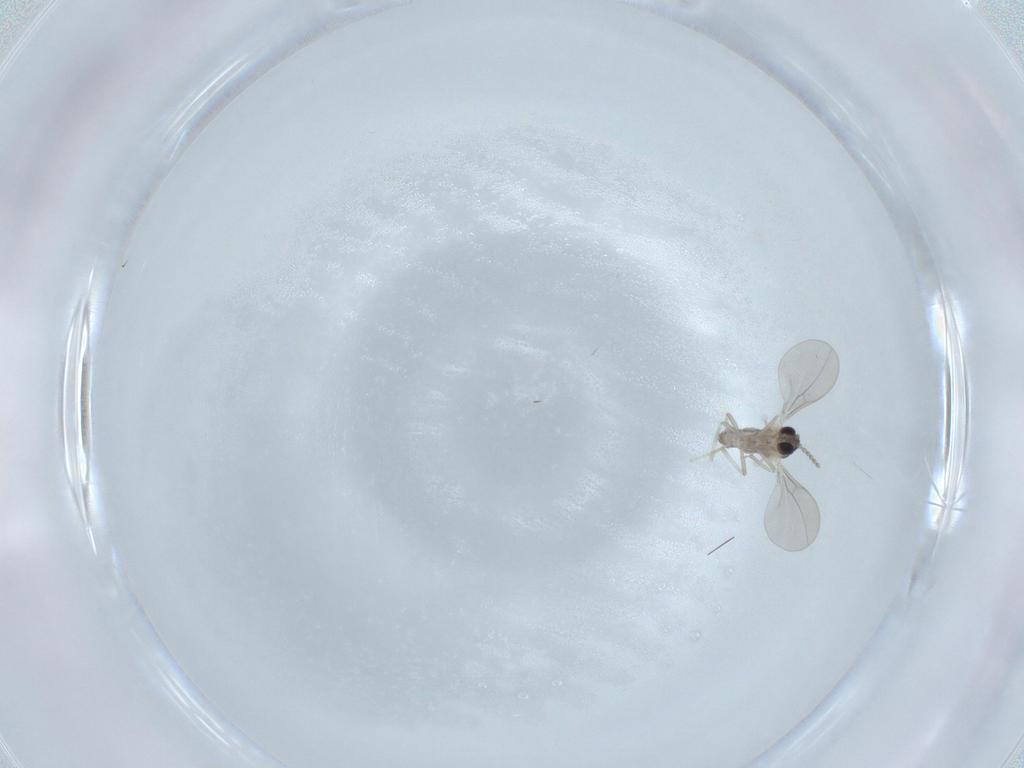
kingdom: Animalia
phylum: Arthropoda
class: Insecta
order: Diptera
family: Cecidomyiidae
